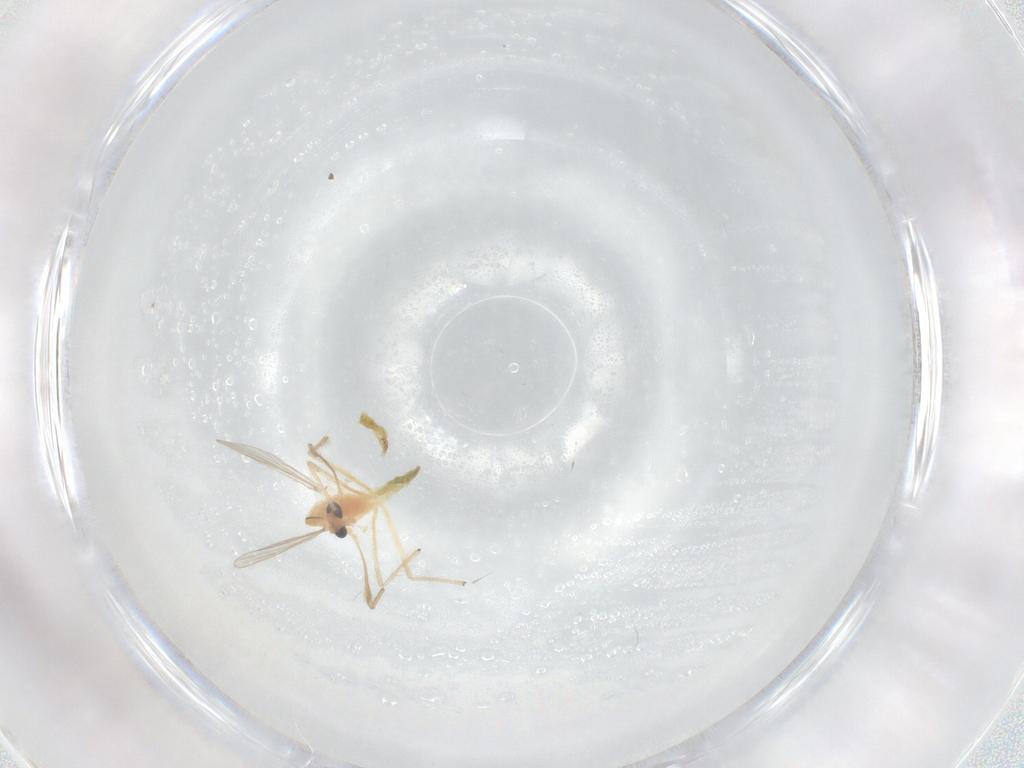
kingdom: Animalia
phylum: Arthropoda
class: Insecta
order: Diptera
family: Chironomidae
